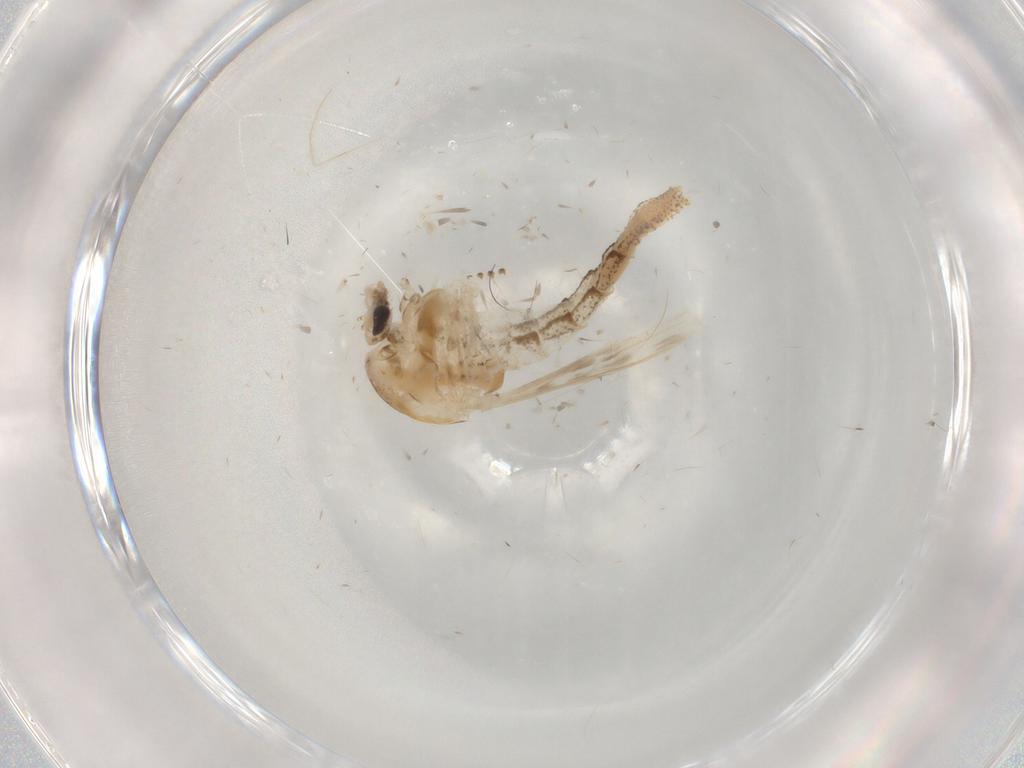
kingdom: Animalia
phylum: Arthropoda
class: Insecta
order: Diptera
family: Chaoboridae
